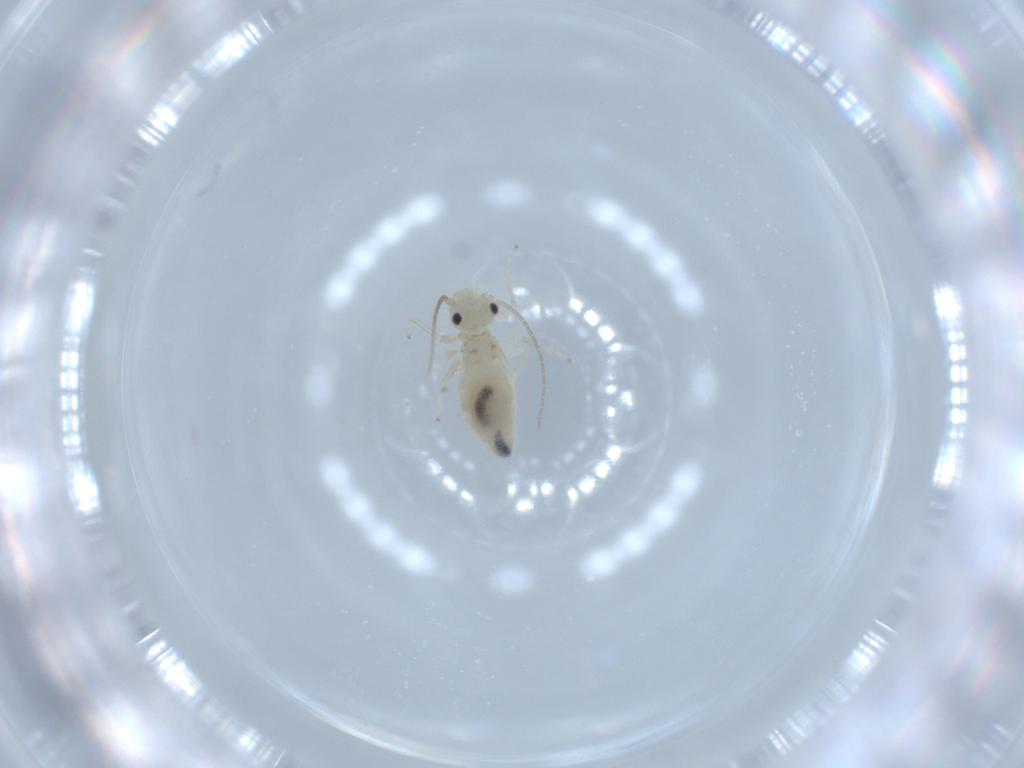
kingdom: Animalia
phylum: Arthropoda
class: Insecta
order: Psocodea
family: Caeciliusidae
